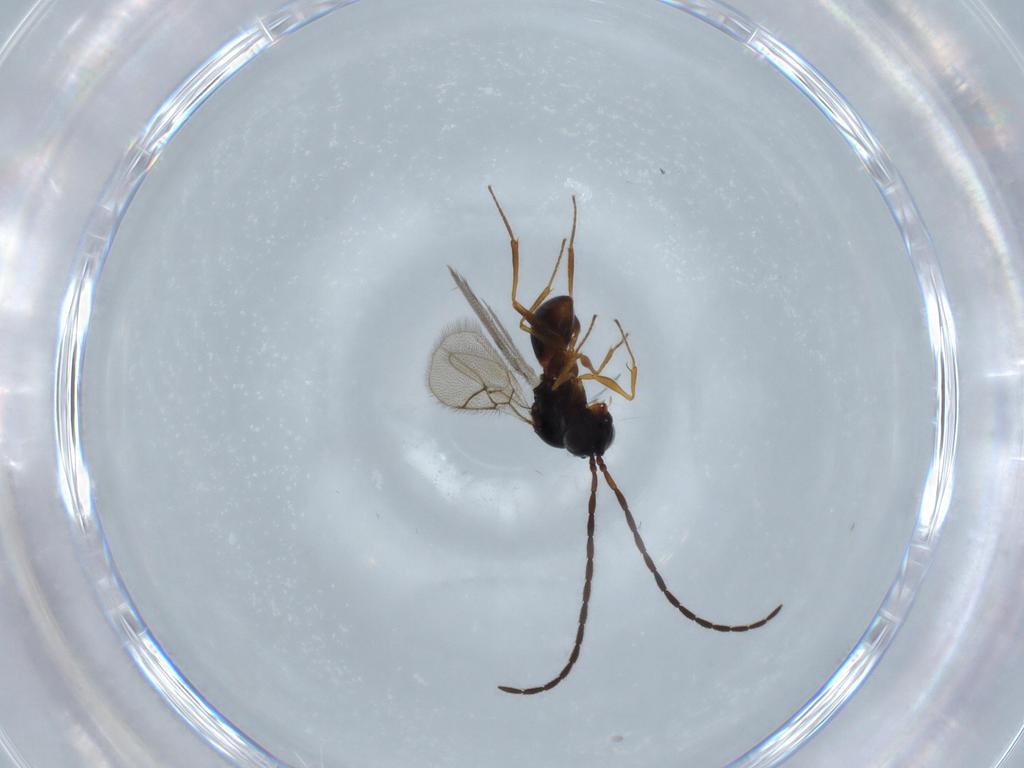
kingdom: Animalia
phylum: Arthropoda
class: Insecta
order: Hymenoptera
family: Figitidae
